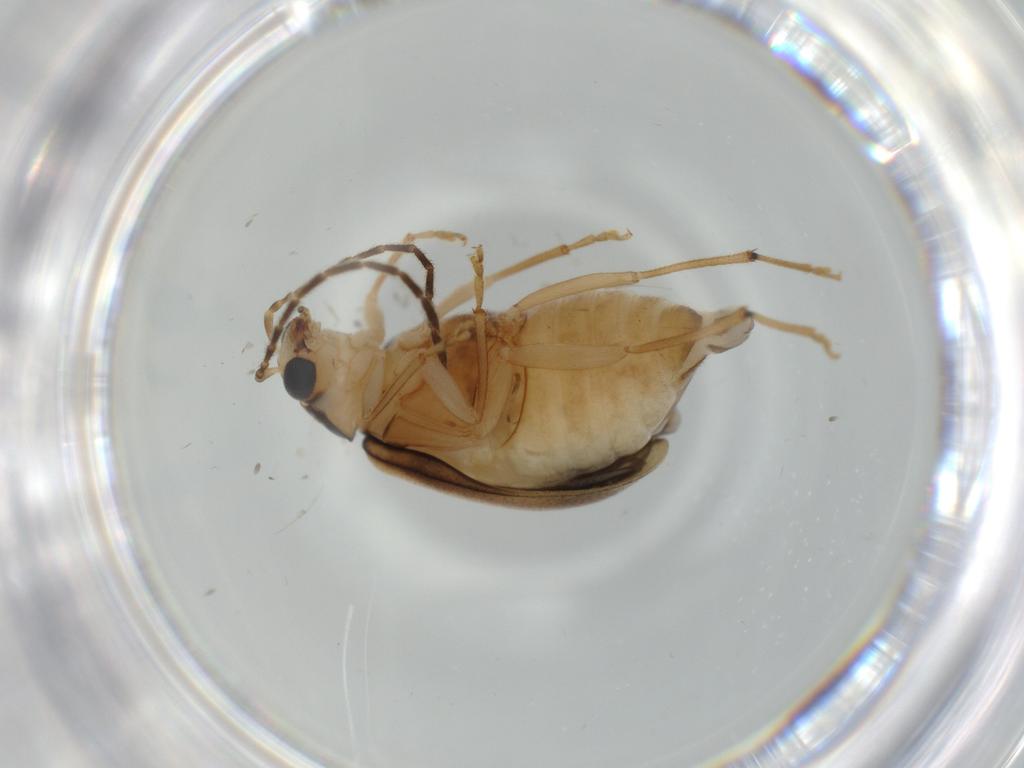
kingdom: Animalia
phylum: Arthropoda
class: Insecta
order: Coleoptera
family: Chrysomelidae
